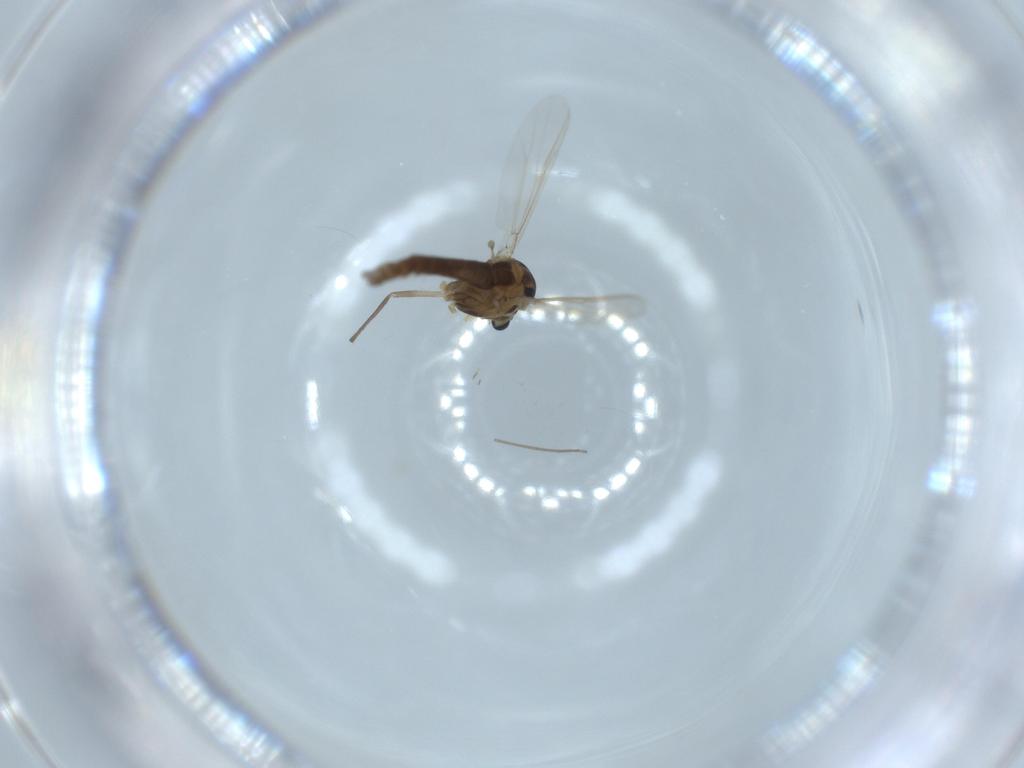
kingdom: Animalia
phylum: Arthropoda
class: Insecta
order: Diptera
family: Chironomidae
